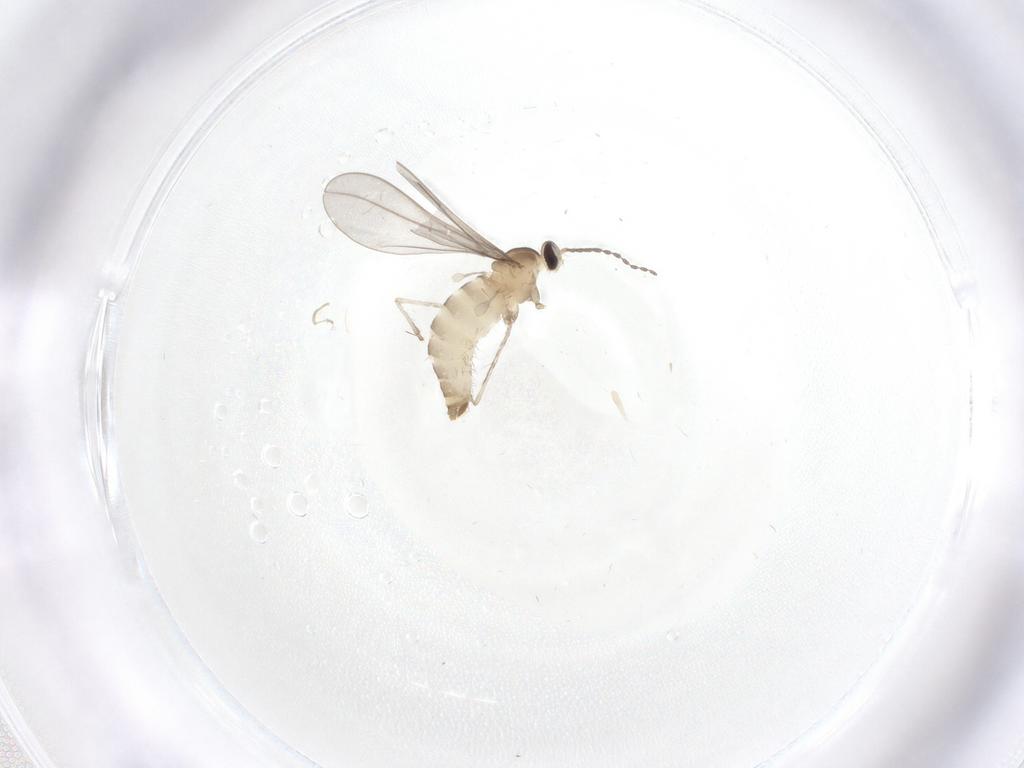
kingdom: Animalia
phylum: Arthropoda
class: Insecta
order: Diptera
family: Cecidomyiidae
